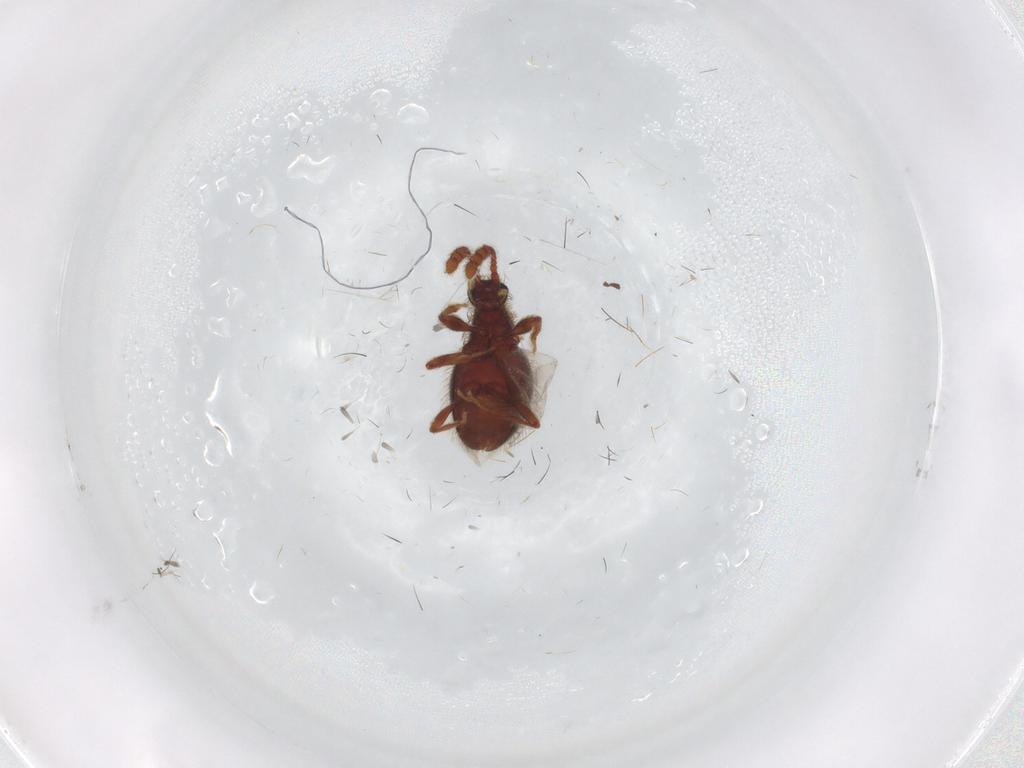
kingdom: Animalia
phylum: Arthropoda
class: Insecta
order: Coleoptera
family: Staphylinidae
